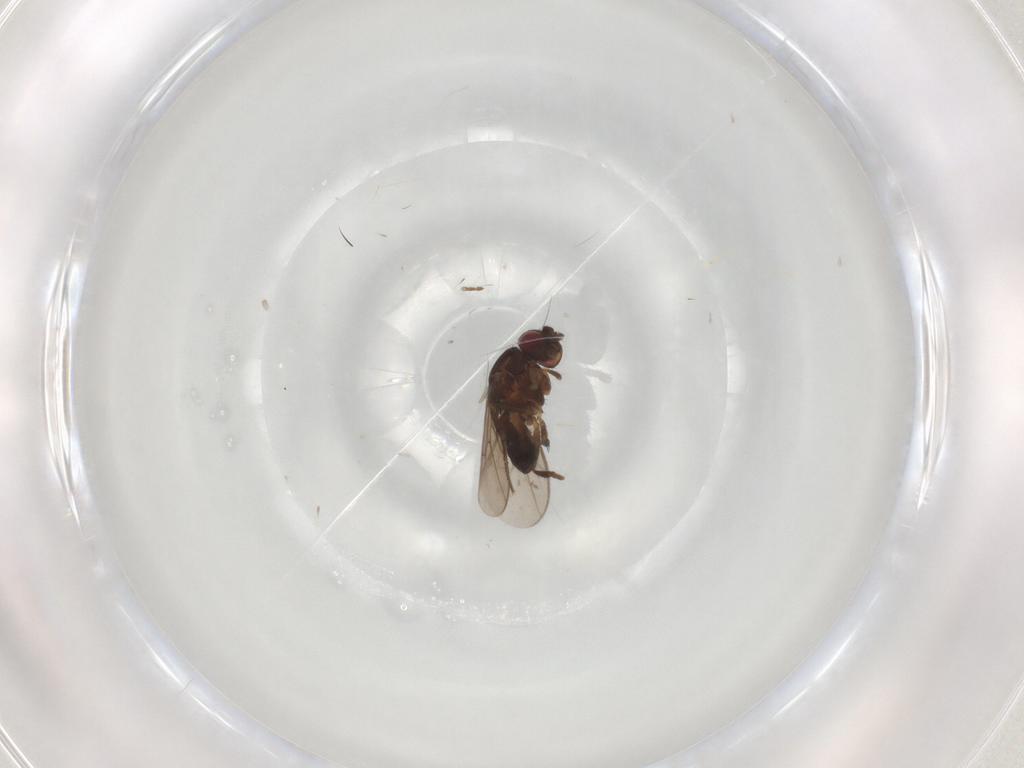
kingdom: Animalia
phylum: Arthropoda
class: Insecta
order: Diptera
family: Sphaeroceridae
